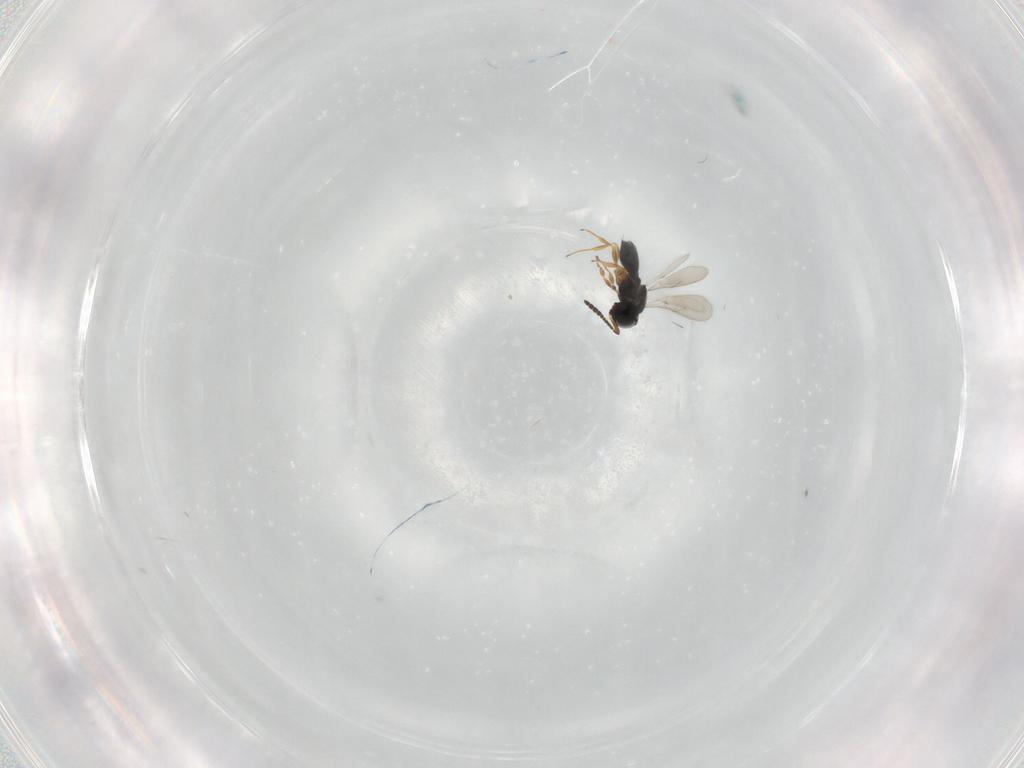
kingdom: Animalia
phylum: Arthropoda
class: Insecta
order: Hymenoptera
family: Scelionidae
